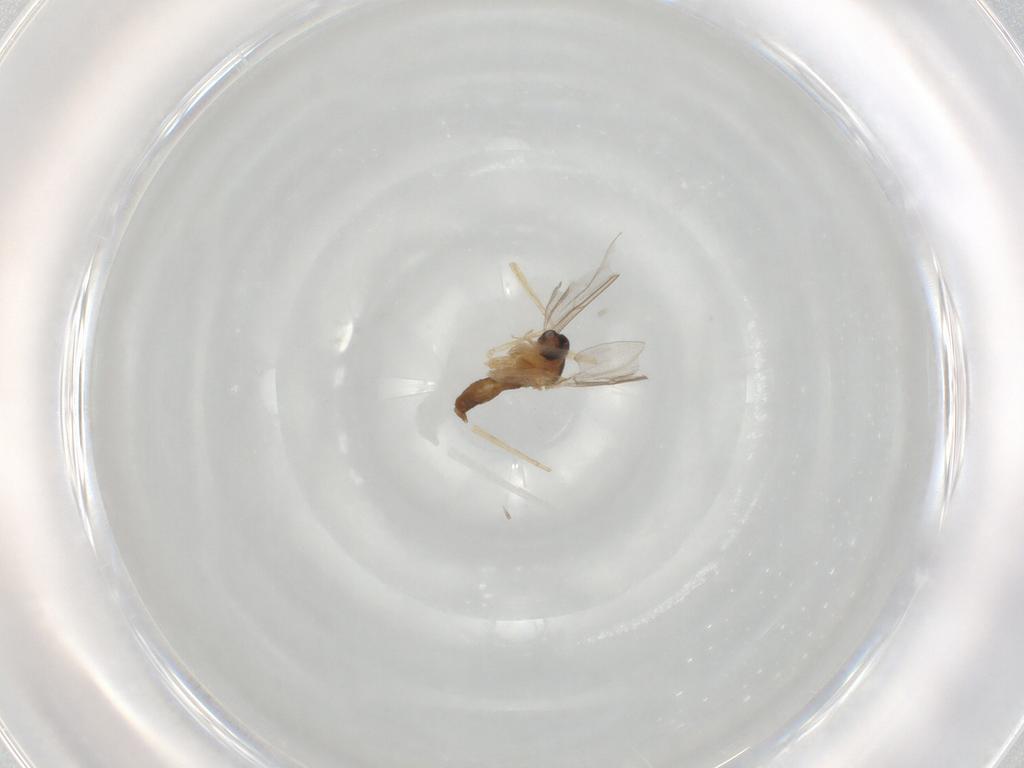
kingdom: Animalia
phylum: Arthropoda
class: Insecta
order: Diptera
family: Cecidomyiidae
